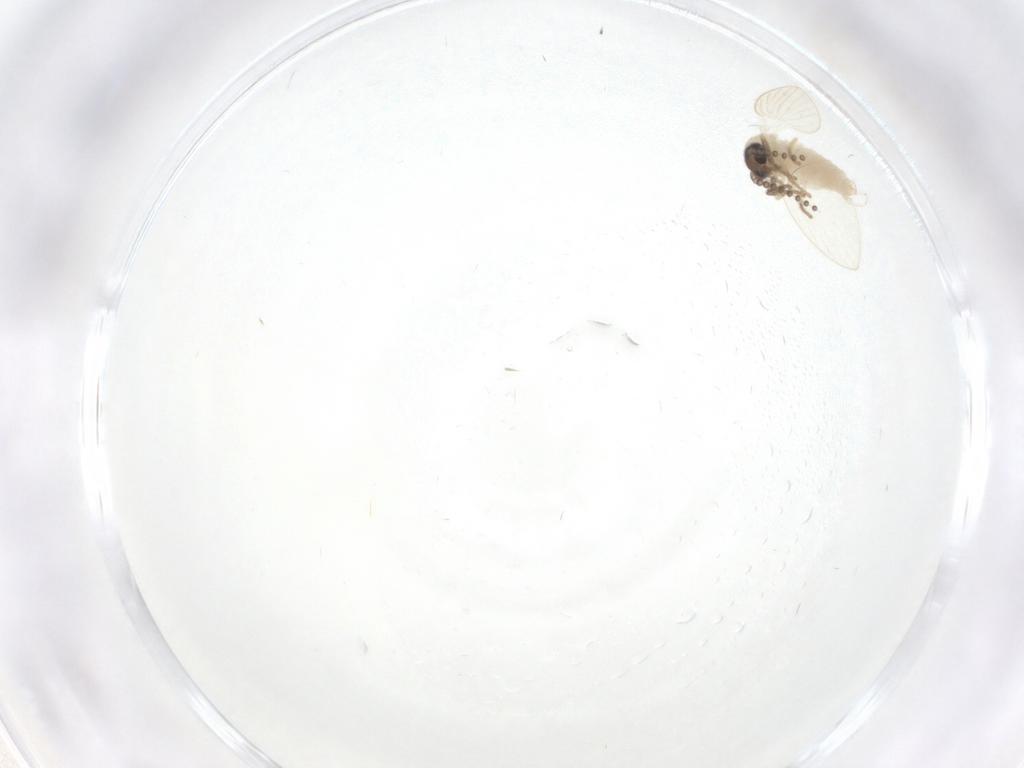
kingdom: Animalia
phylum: Arthropoda
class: Insecta
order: Diptera
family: Psychodidae
